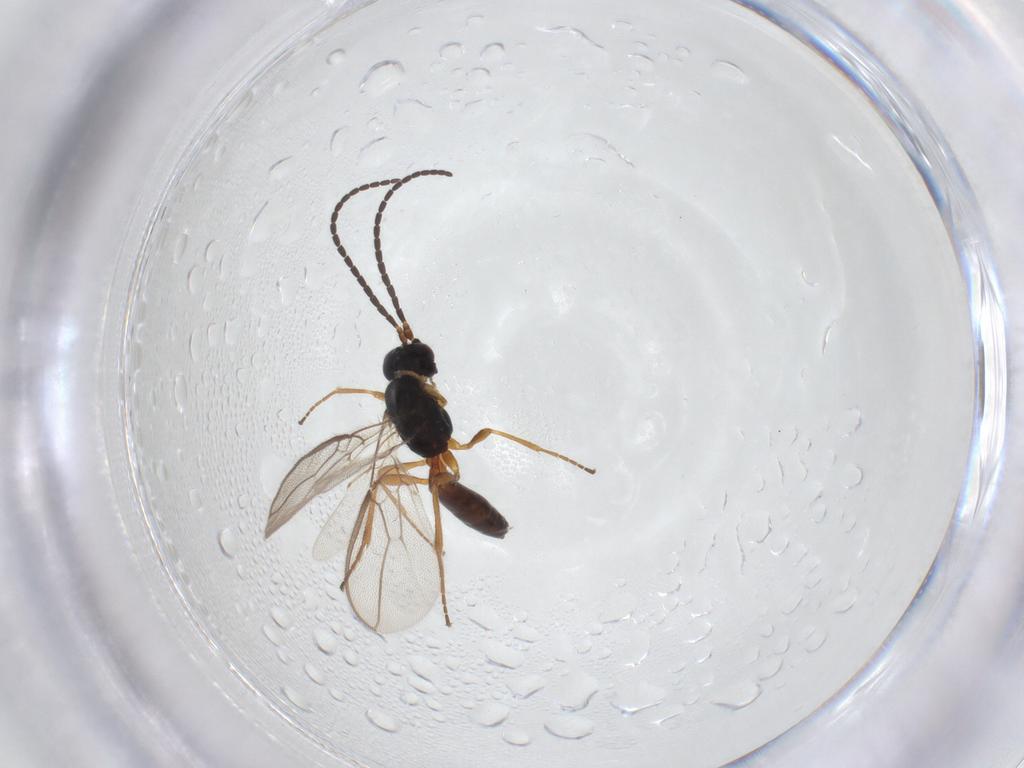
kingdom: Animalia
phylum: Arthropoda
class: Insecta
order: Hymenoptera
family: Braconidae
